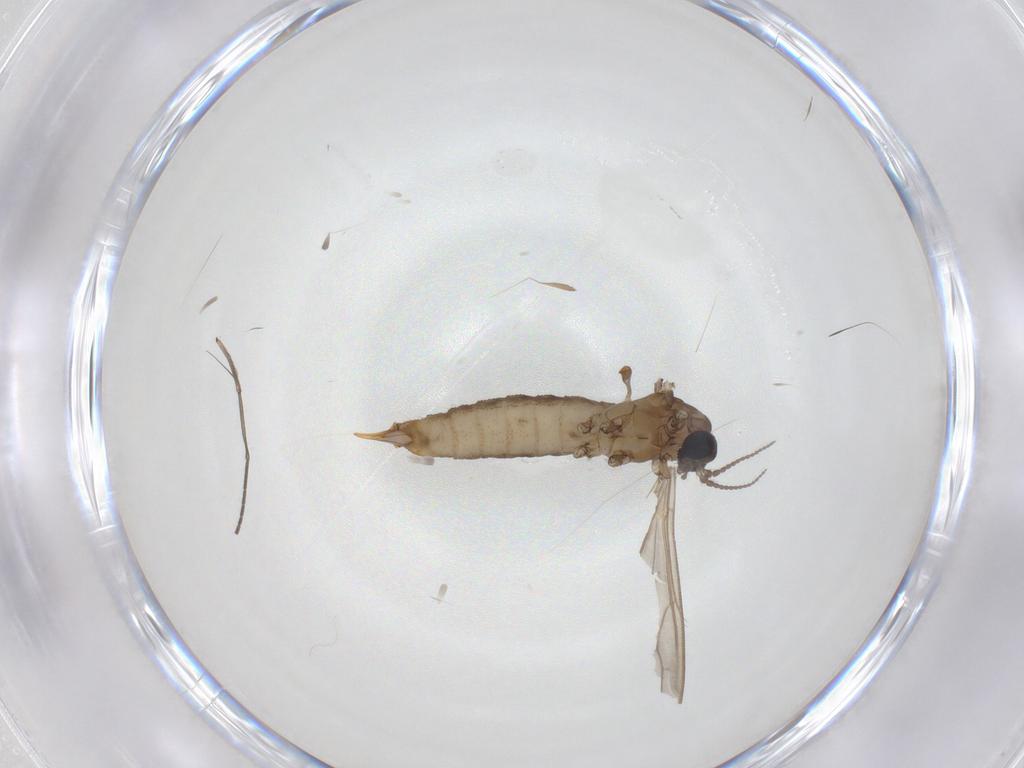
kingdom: Animalia
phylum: Arthropoda
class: Insecta
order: Diptera
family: Limoniidae
